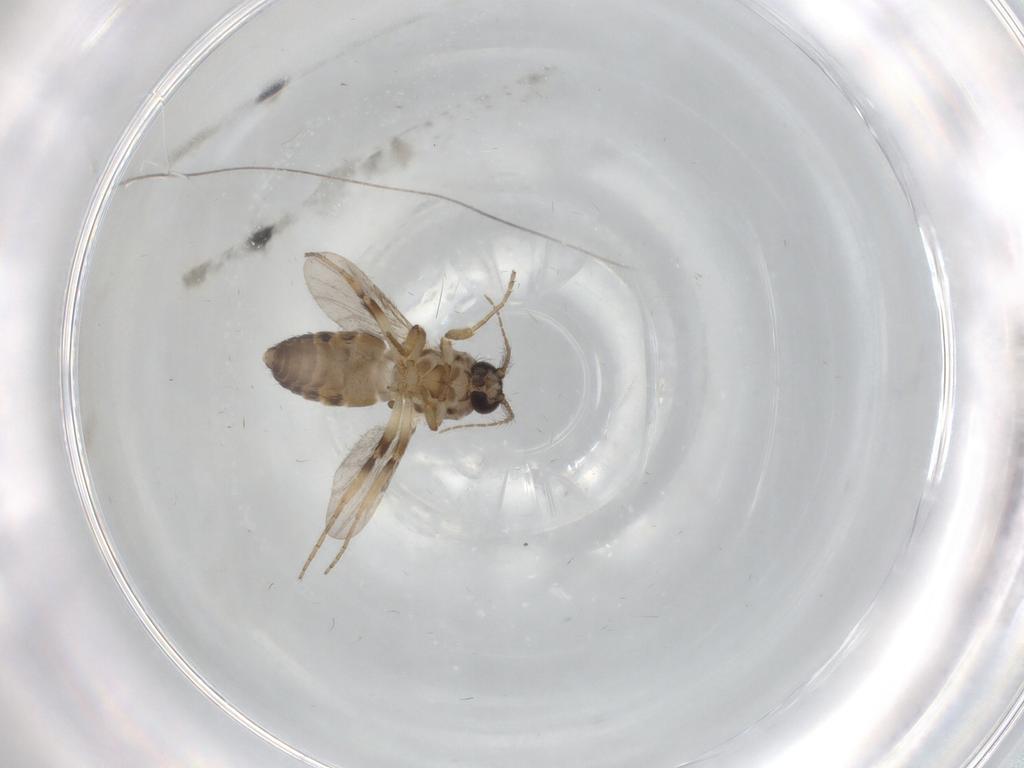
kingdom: Animalia
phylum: Arthropoda
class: Insecta
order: Diptera
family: Ceratopogonidae
